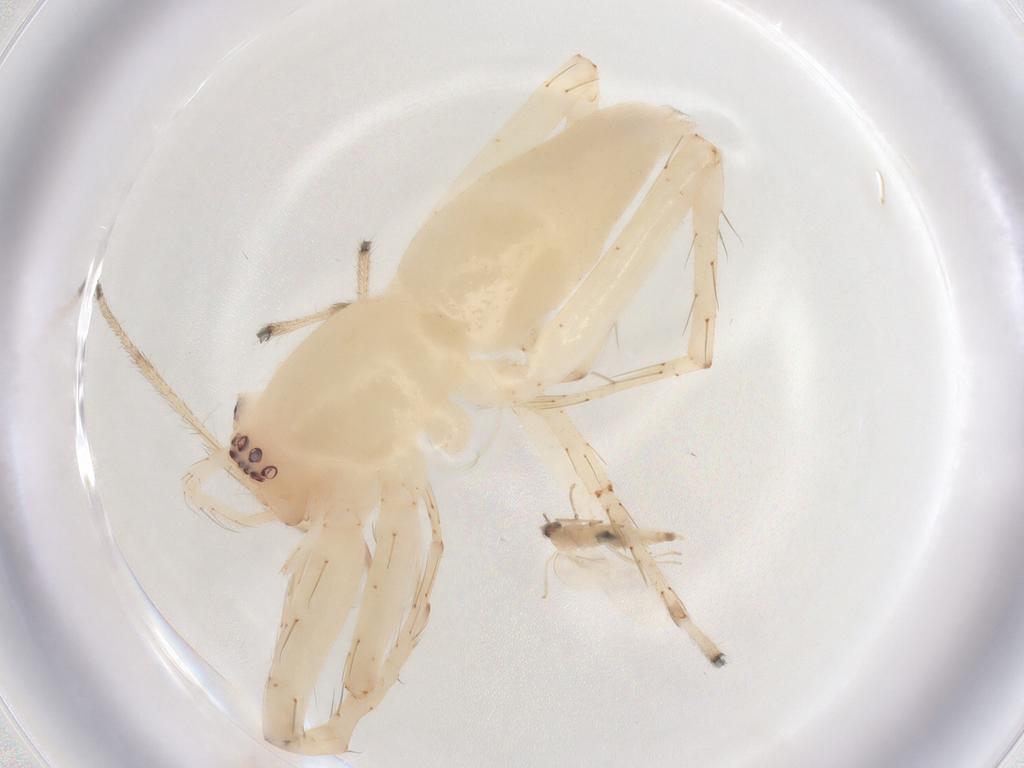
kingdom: Animalia
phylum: Arthropoda
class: Arachnida
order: Araneae
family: Anyphaenidae
